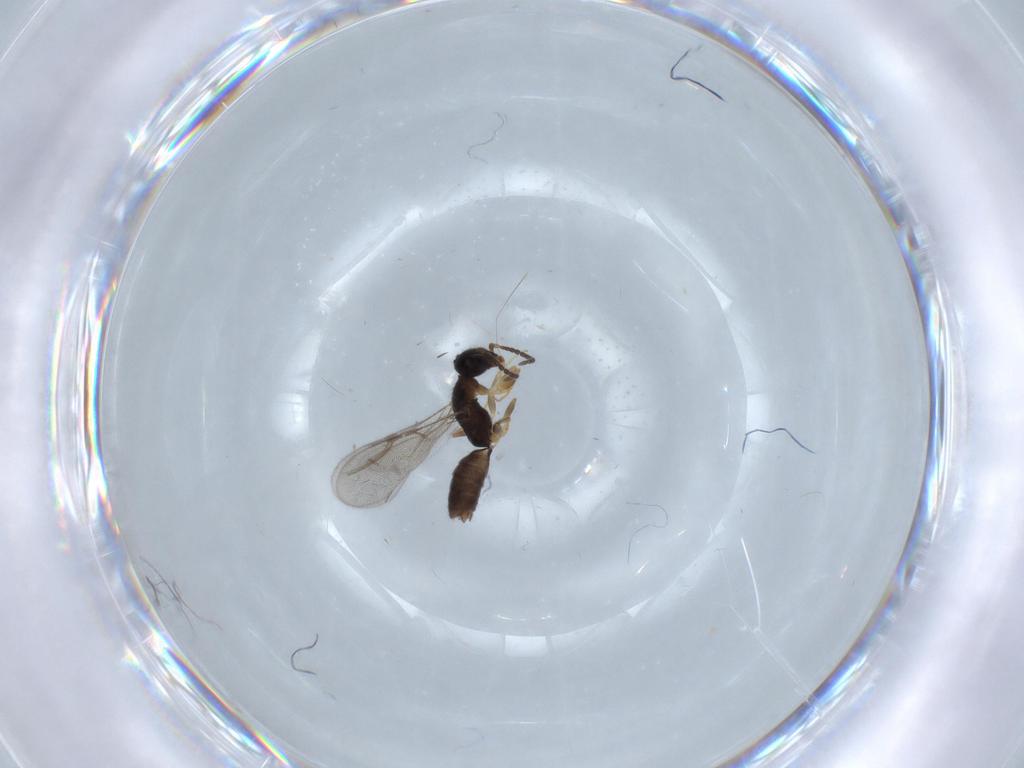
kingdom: Animalia
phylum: Arthropoda
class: Insecta
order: Hymenoptera
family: Bethylidae
